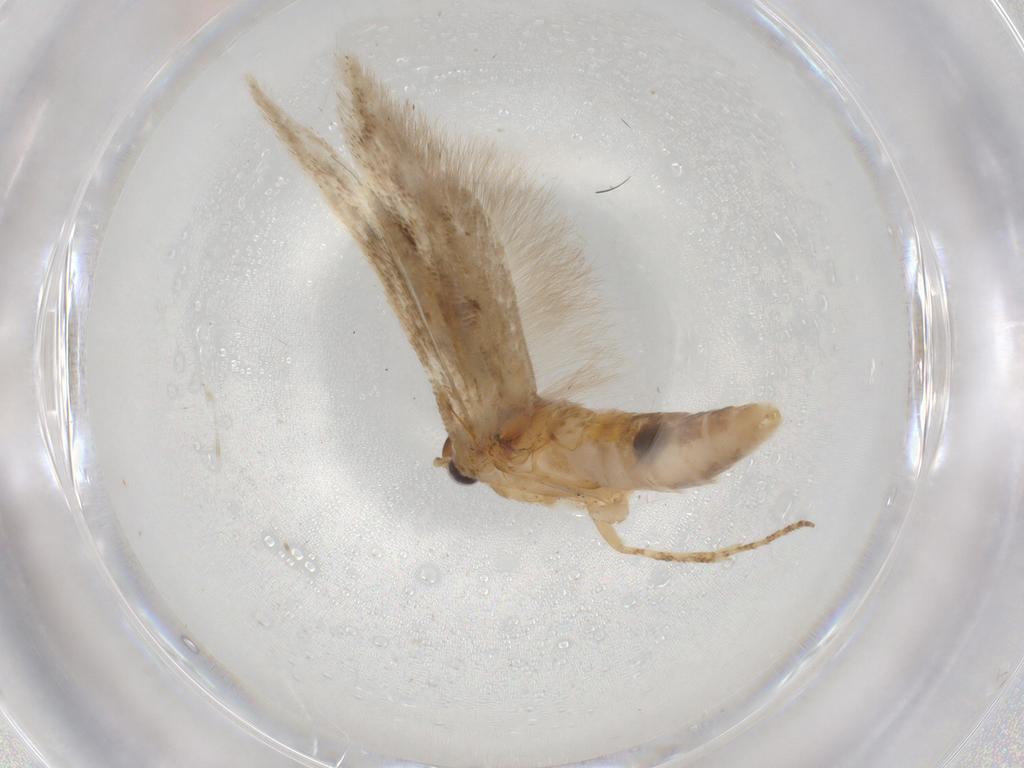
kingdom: Animalia
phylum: Arthropoda
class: Insecta
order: Lepidoptera
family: Gelechiidae
